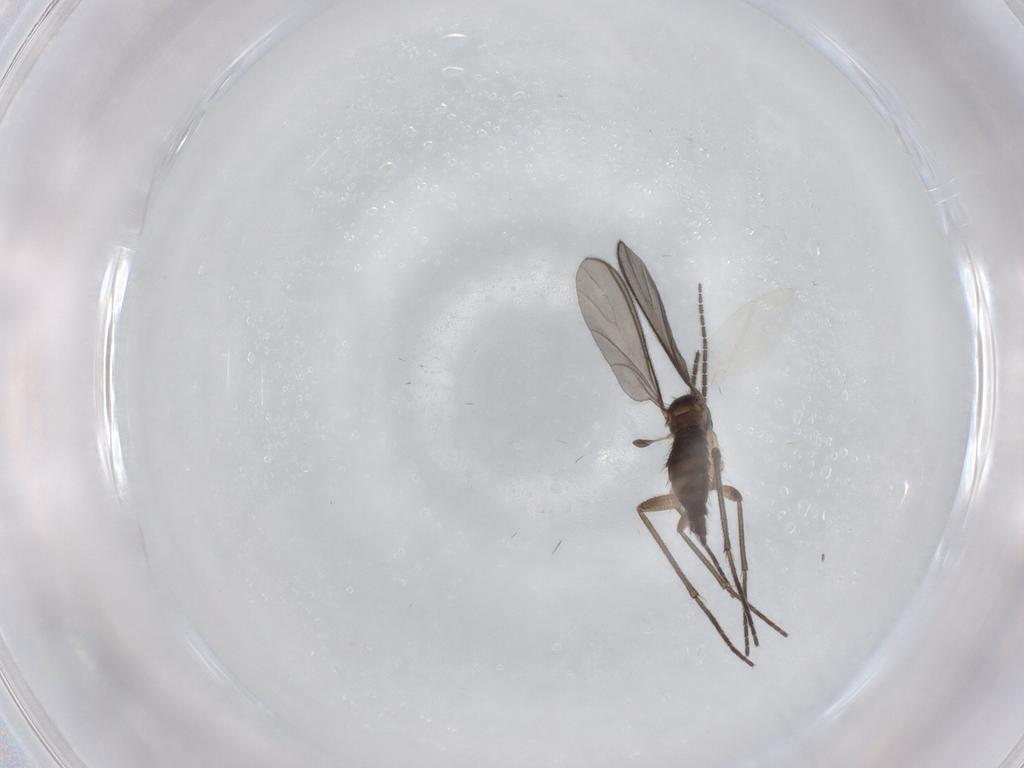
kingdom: Animalia
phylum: Arthropoda
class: Insecta
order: Diptera
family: Sciaridae
